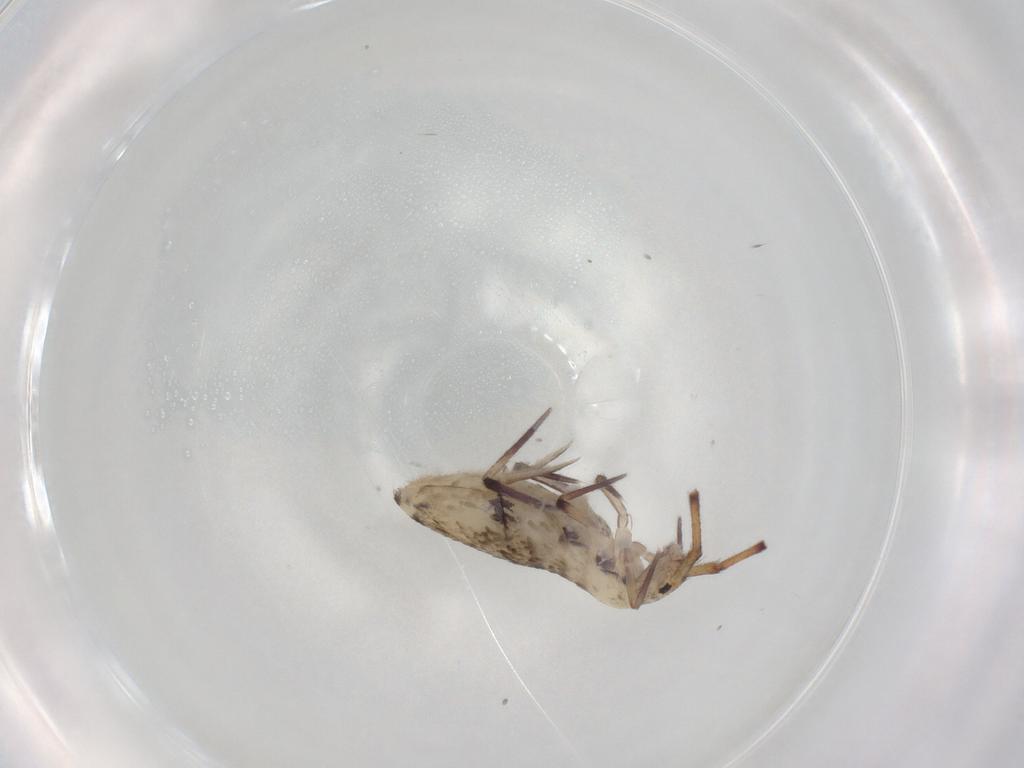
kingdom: Animalia
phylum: Arthropoda
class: Collembola
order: Entomobryomorpha
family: Entomobryidae
